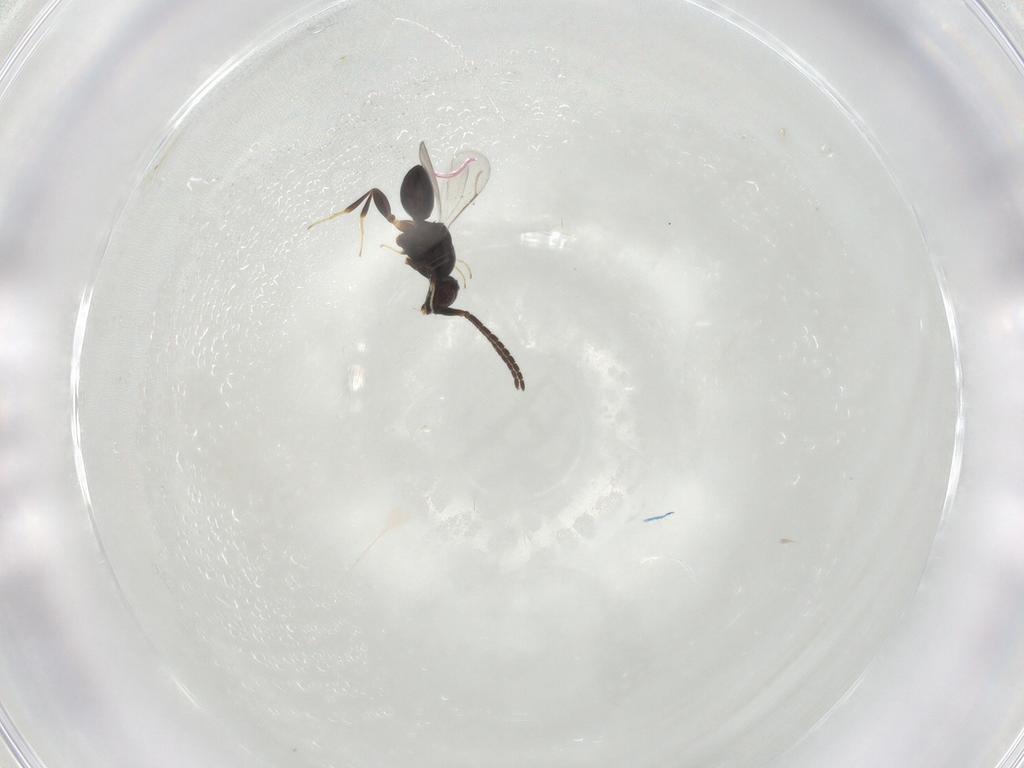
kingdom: Animalia
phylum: Arthropoda
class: Insecta
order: Hymenoptera
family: Ceraphronidae
